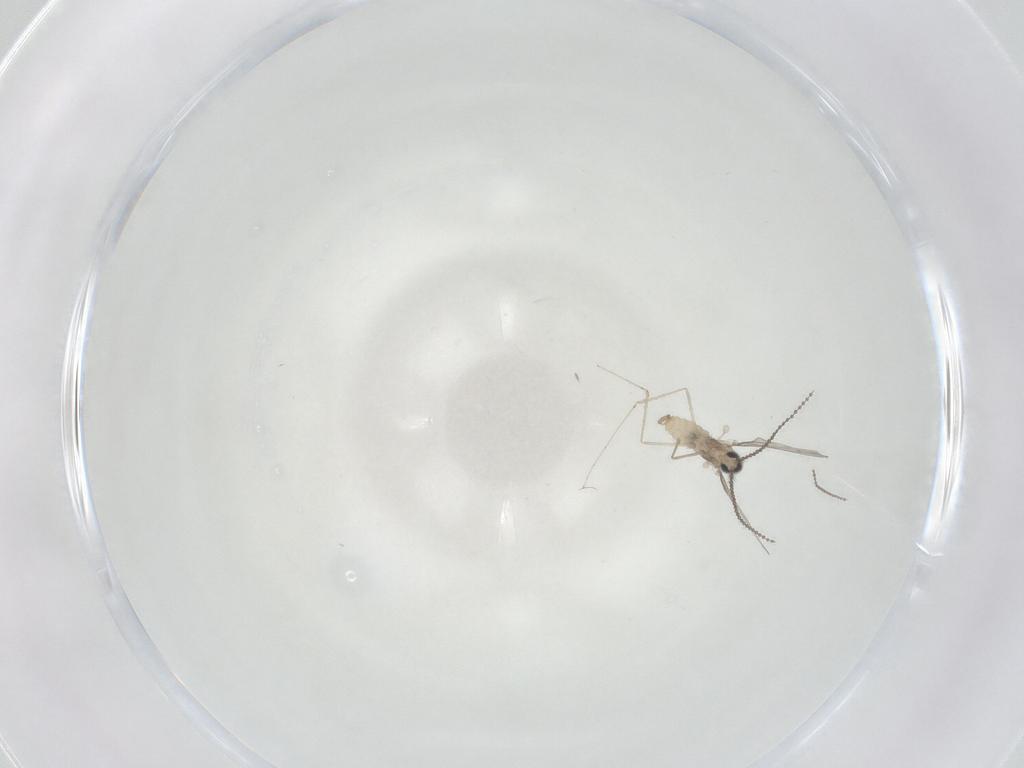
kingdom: Animalia
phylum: Arthropoda
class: Insecta
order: Diptera
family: Cecidomyiidae
